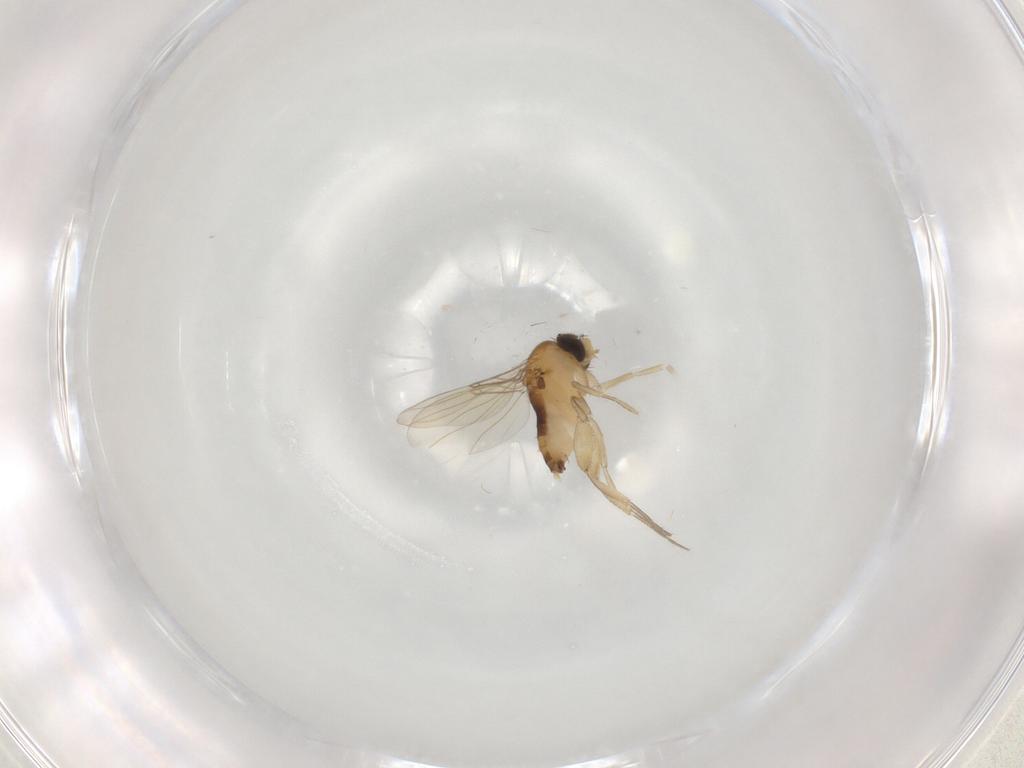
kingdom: Animalia
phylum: Arthropoda
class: Insecta
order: Diptera
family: Phoridae
